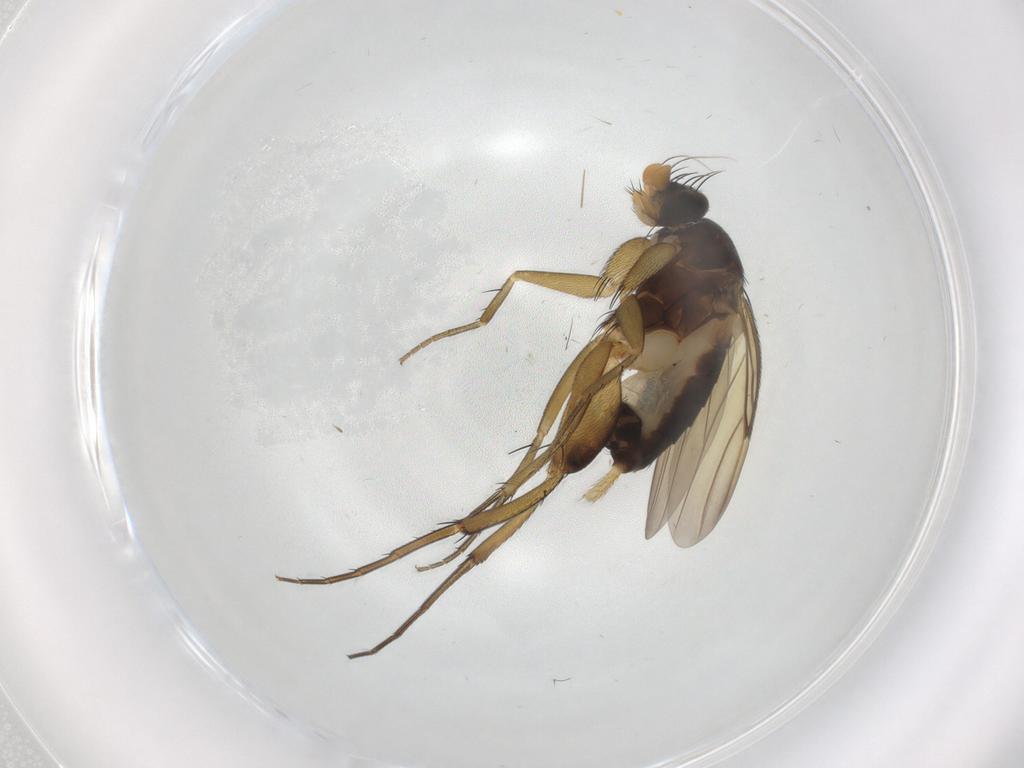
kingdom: Animalia
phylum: Arthropoda
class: Insecta
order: Diptera
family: Phoridae
